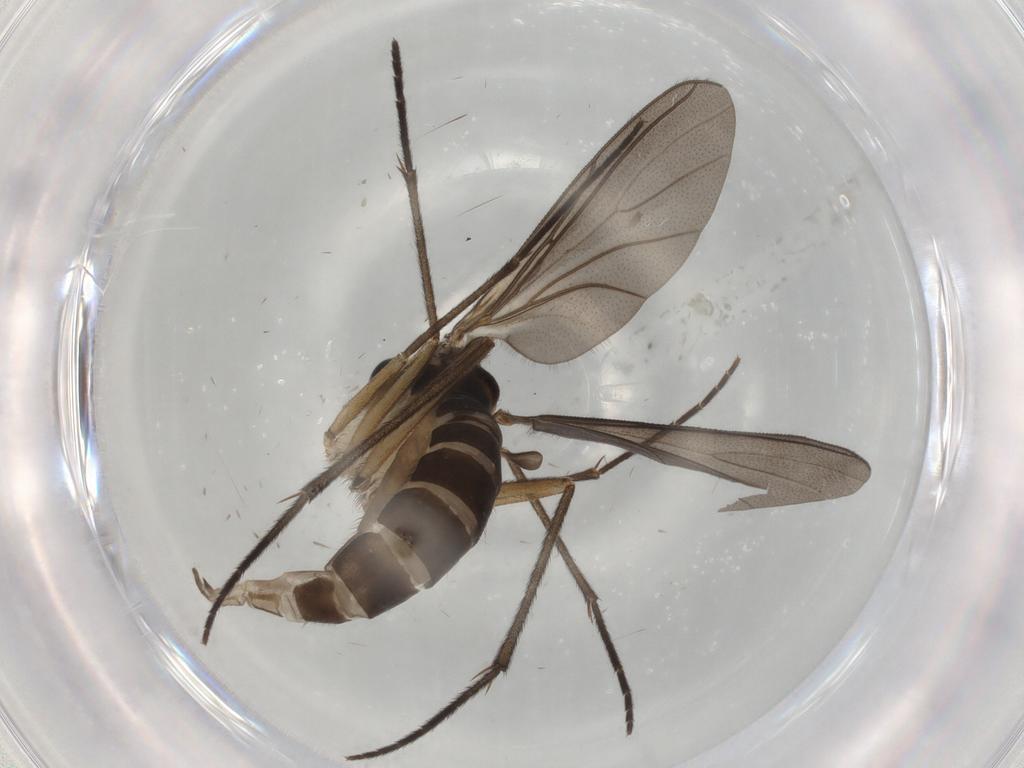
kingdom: Animalia
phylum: Arthropoda
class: Insecta
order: Diptera
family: Sciaridae
